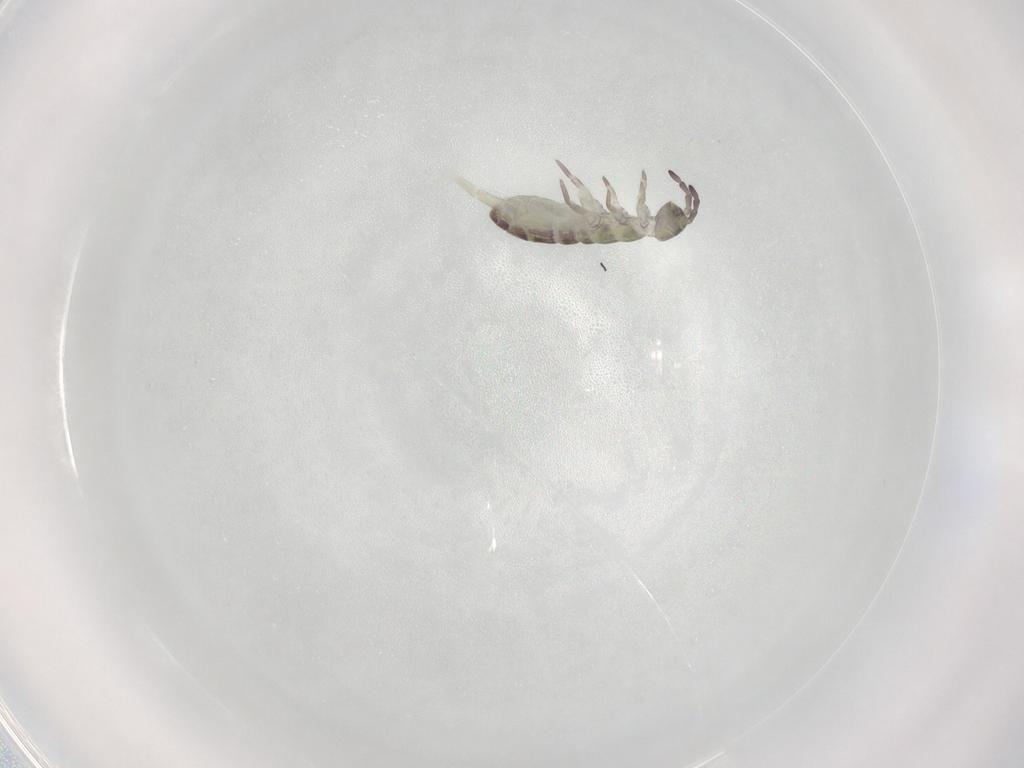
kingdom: Animalia
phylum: Arthropoda
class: Collembola
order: Entomobryomorpha
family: Isotomidae
